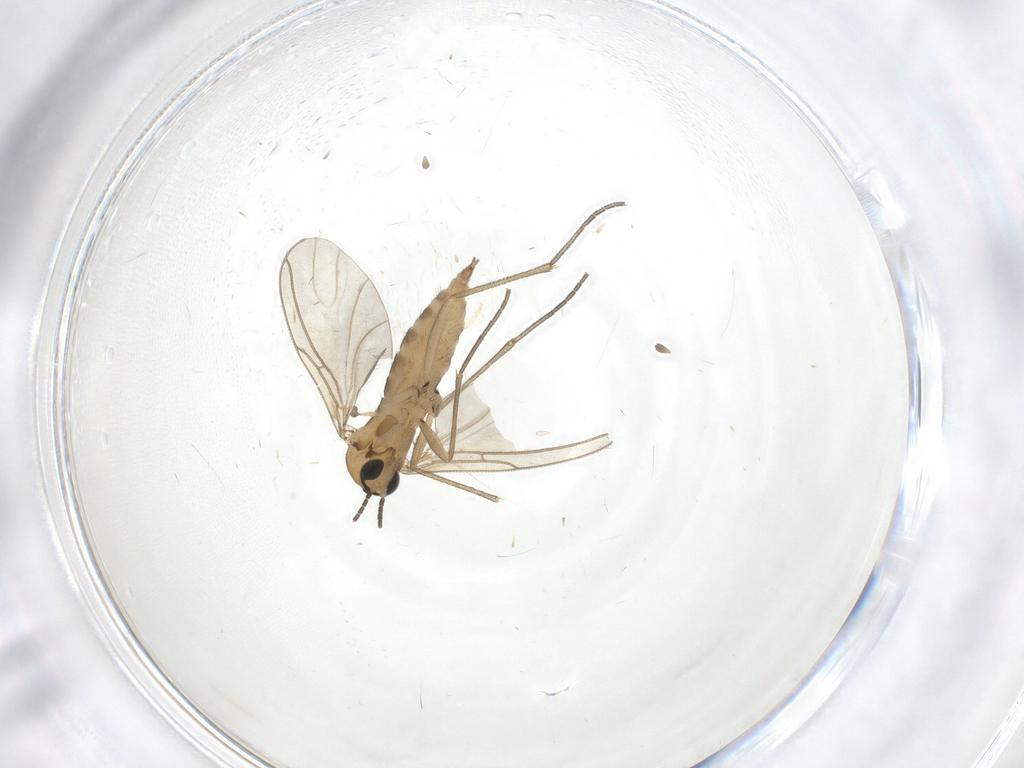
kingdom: Animalia
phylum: Arthropoda
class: Insecta
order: Diptera
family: Sciaridae
